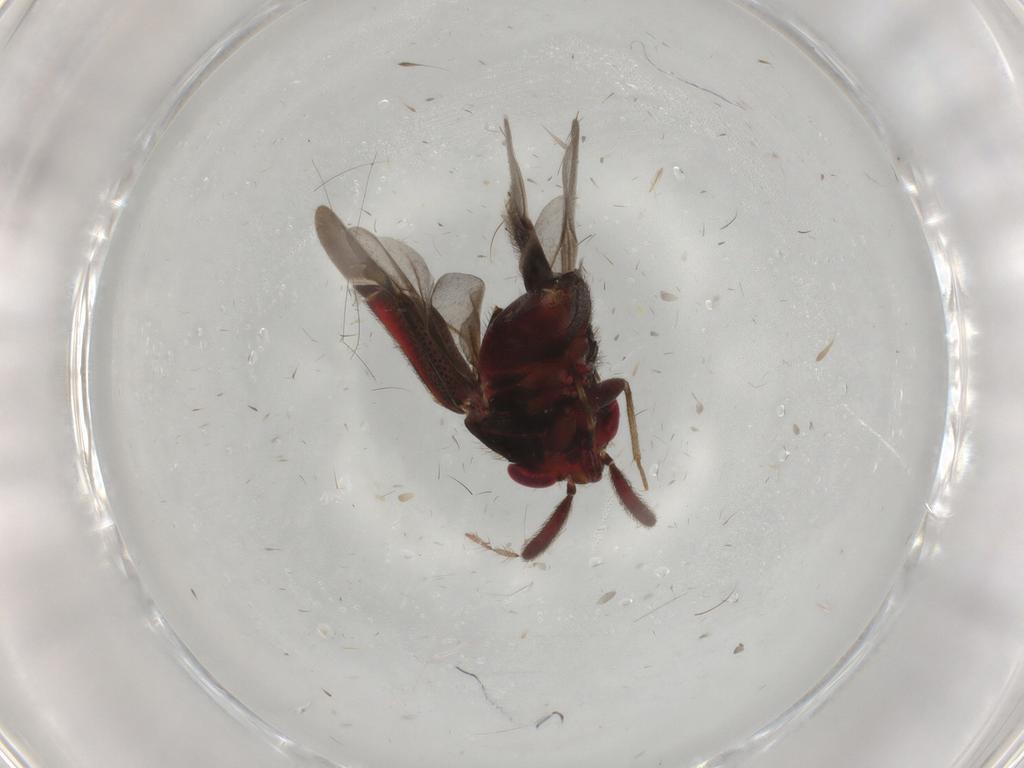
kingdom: Animalia
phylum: Arthropoda
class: Insecta
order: Hemiptera
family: Miridae
